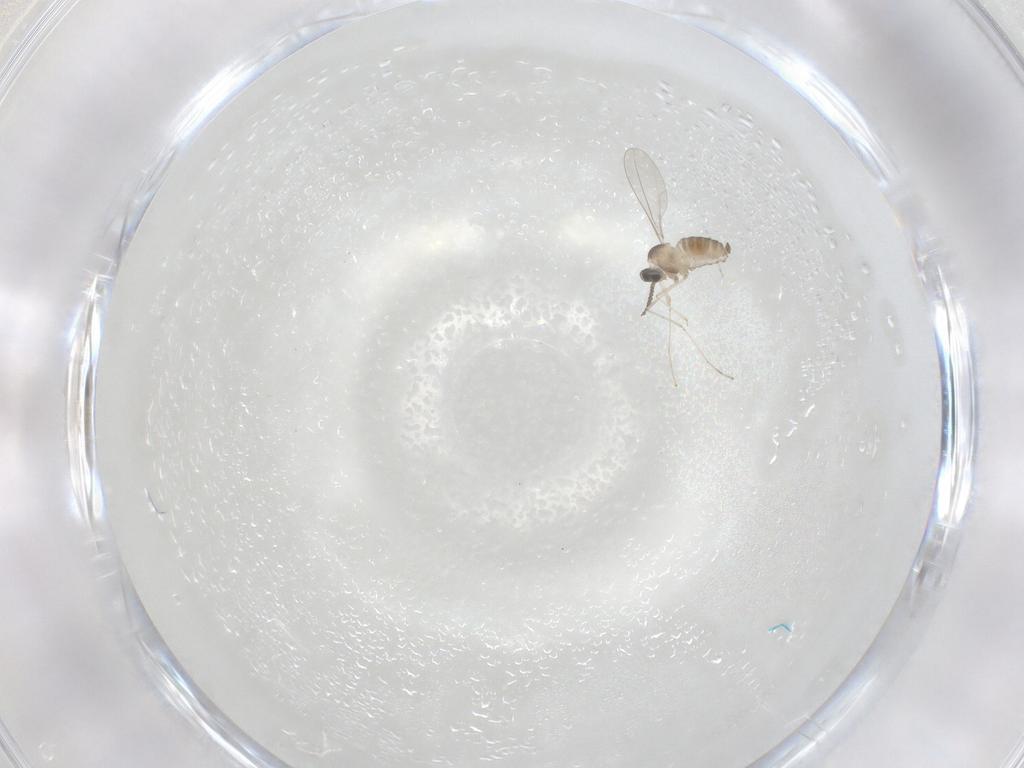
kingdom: Animalia
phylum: Arthropoda
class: Insecta
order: Diptera
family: Cecidomyiidae
